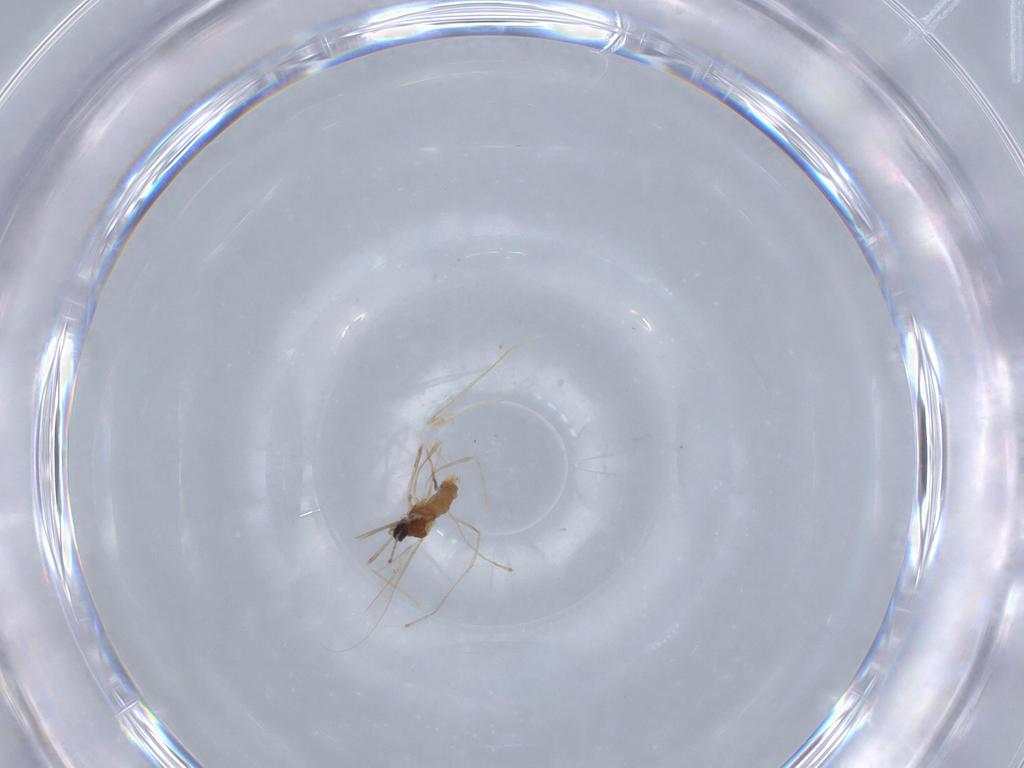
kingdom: Animalia
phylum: Arthropoda
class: Insecta
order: Diptera
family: Cecidomyiidae
